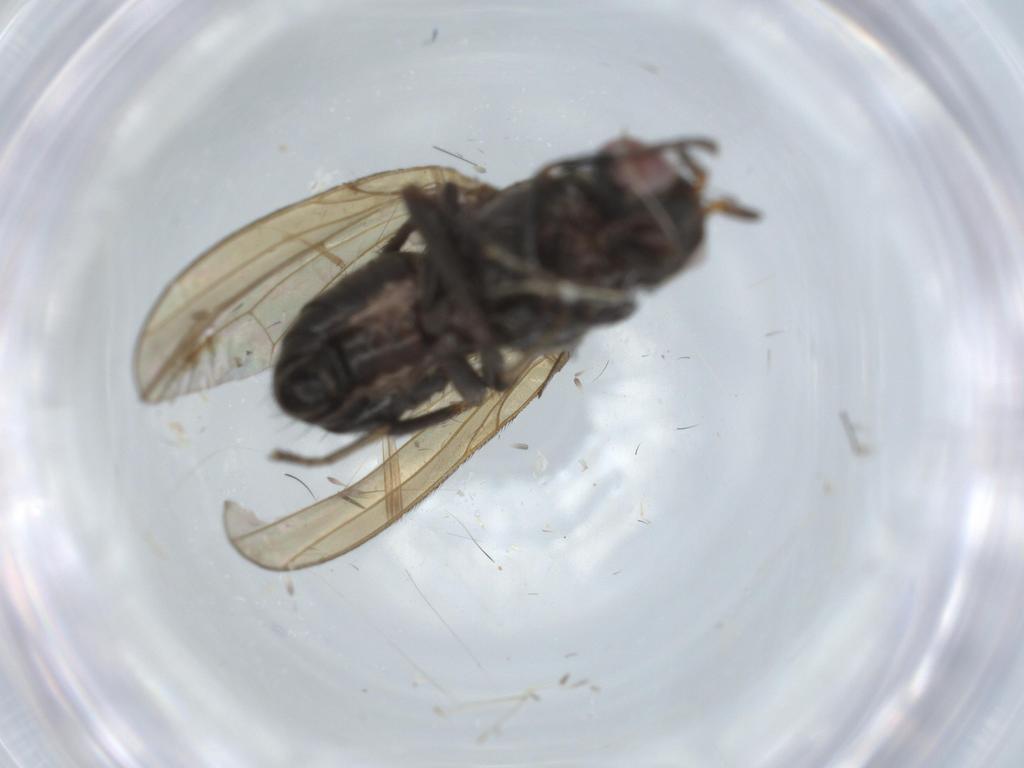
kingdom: Animalia
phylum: Arthropoda
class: Insecta
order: Diptera
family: Lauxaniidae
